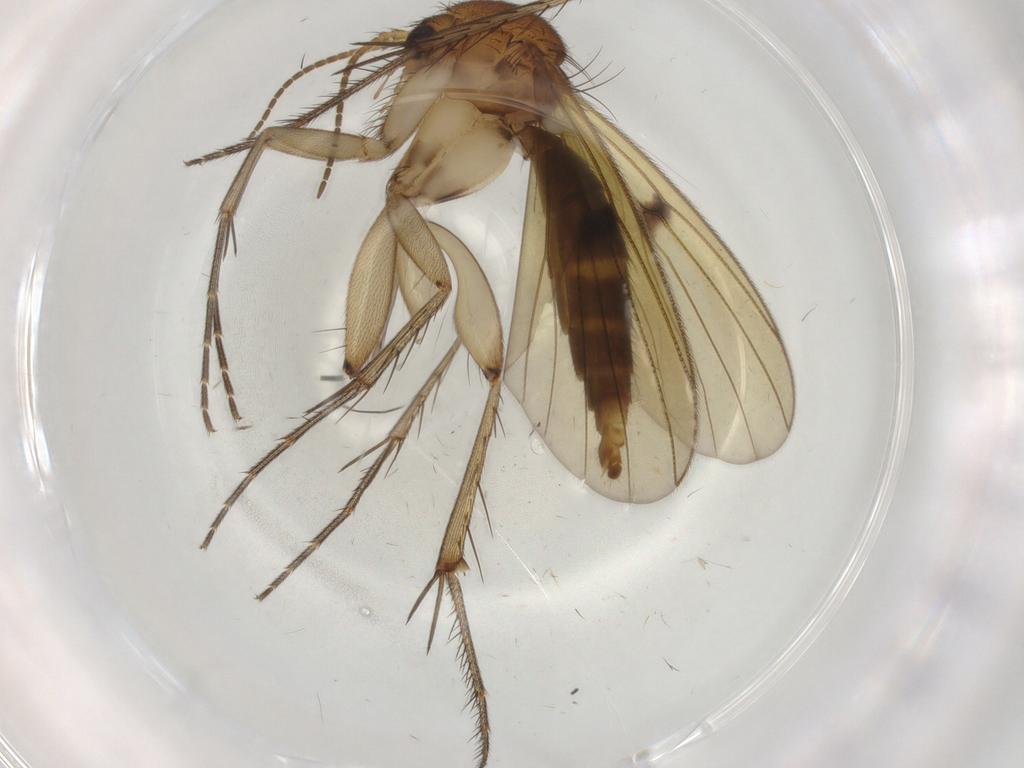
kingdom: Animalia
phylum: Arthropoda
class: Insecta
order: Diptera
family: Mycetophilidae
